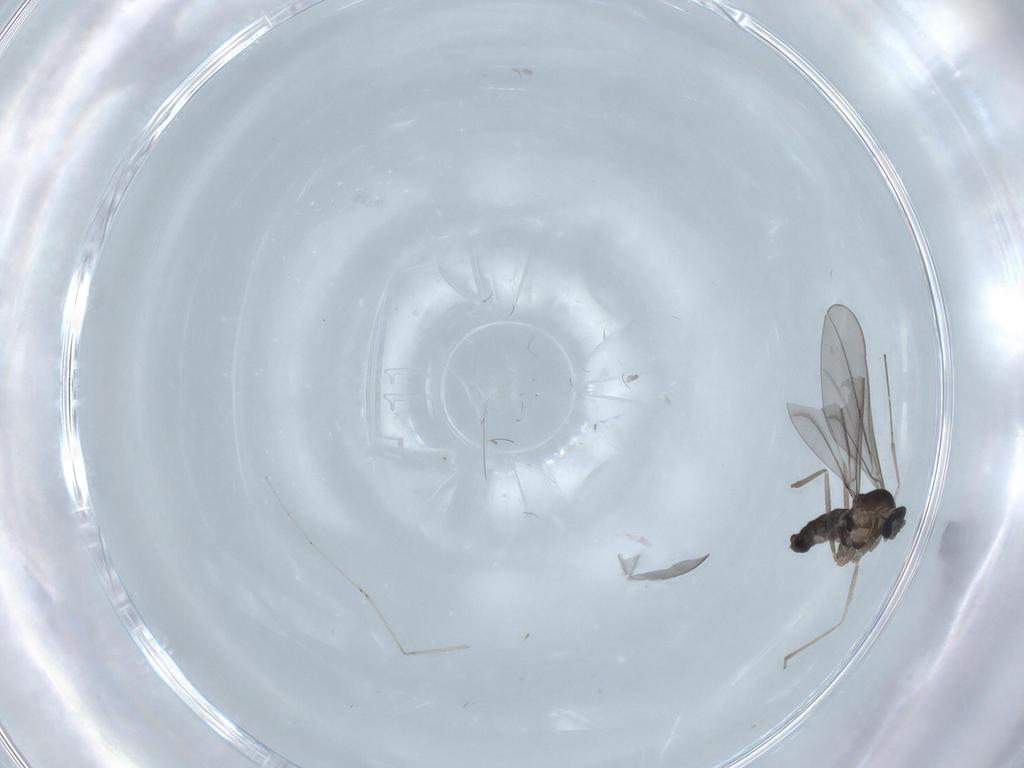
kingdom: Animalia
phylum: Arthropoda
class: Insecta
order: Diptera
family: Cecidomyiidae
